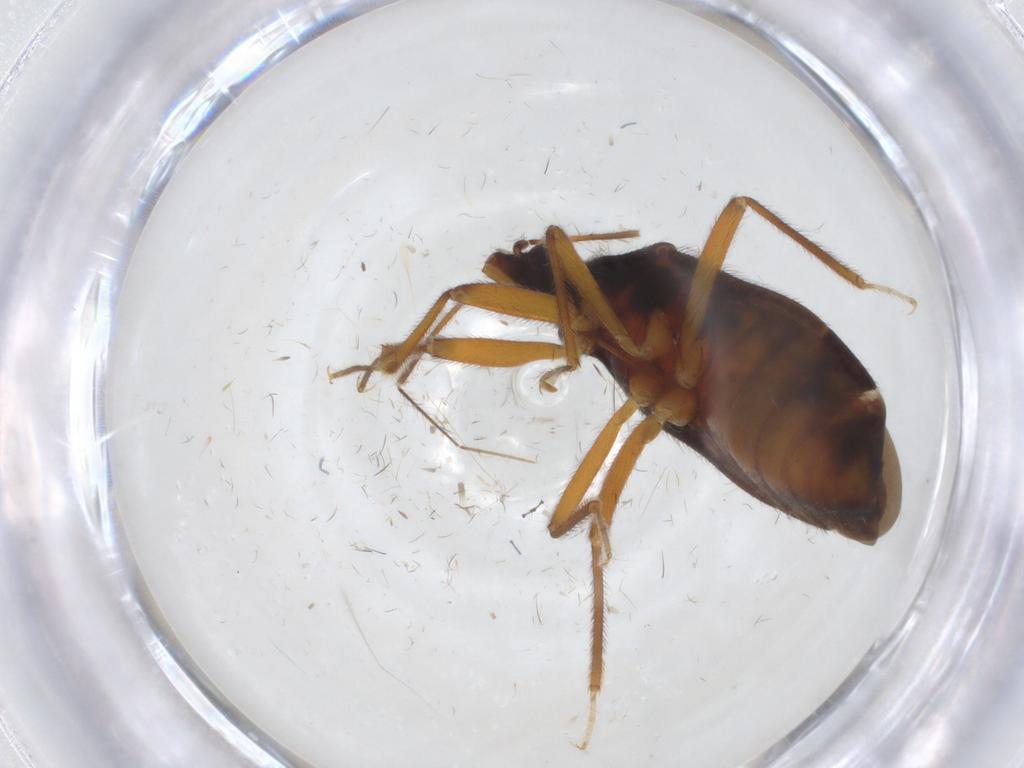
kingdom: Animalia
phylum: Arthropoda
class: Insecta
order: Hemiptera
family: Anthocoridae
